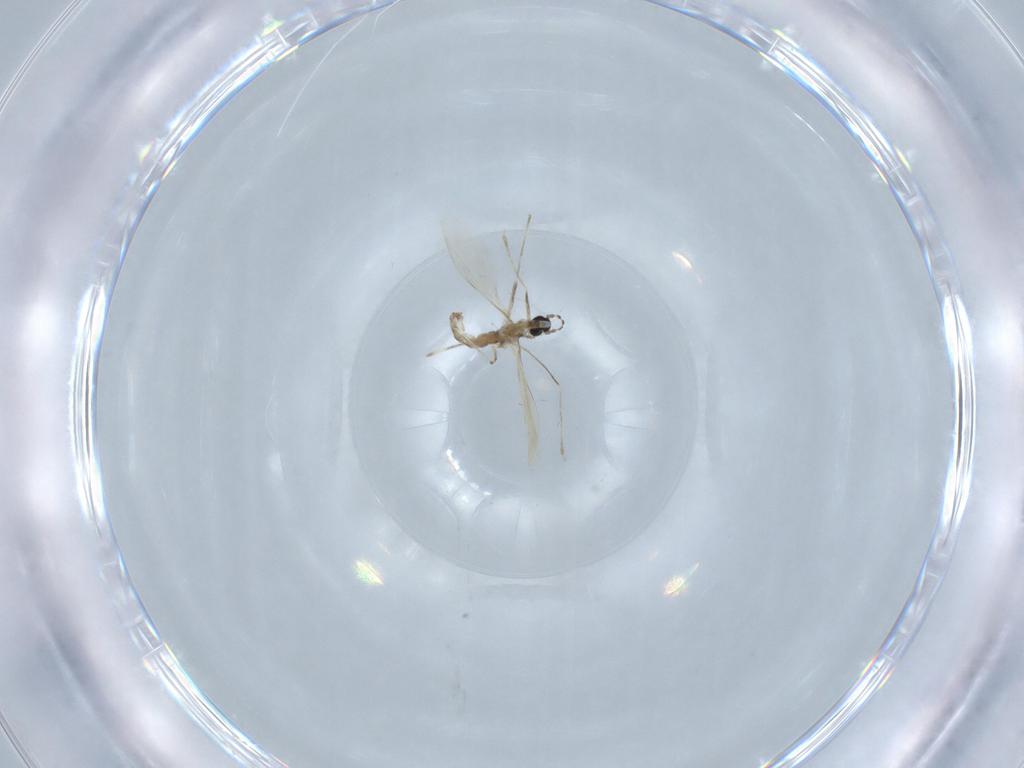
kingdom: Animalia
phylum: Arthropoda
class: Insecta
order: Diptera
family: Cecidomyiidae
